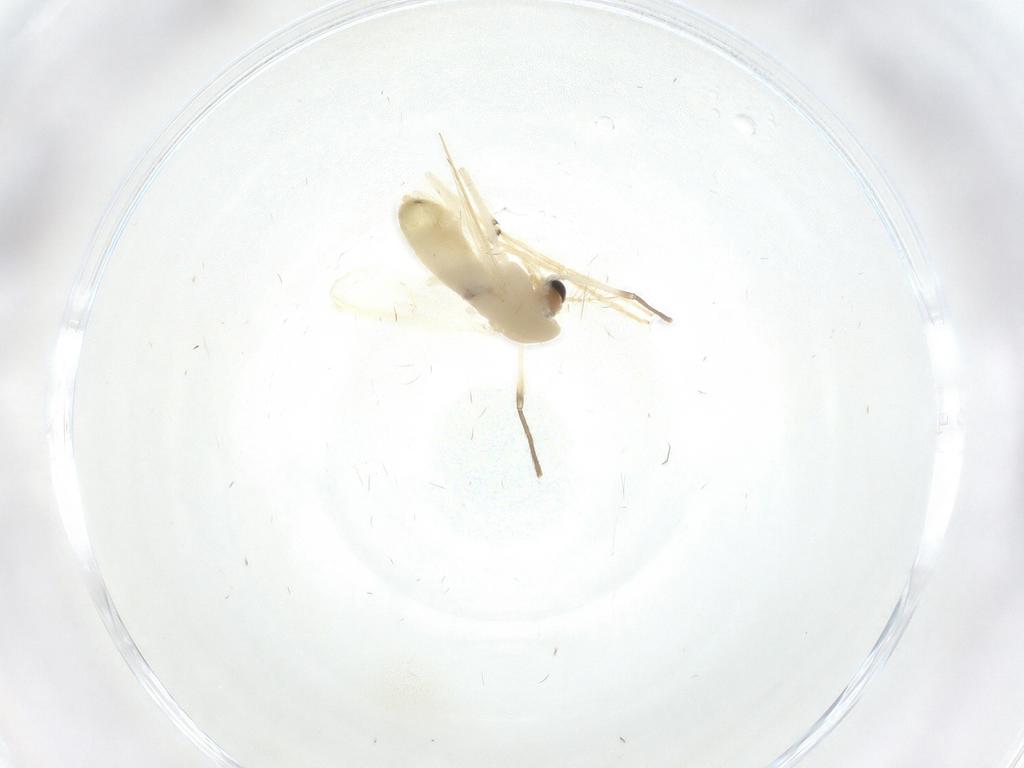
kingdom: Animalia
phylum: Arthropoda
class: Insecta
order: Diptera
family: Chironomidae
